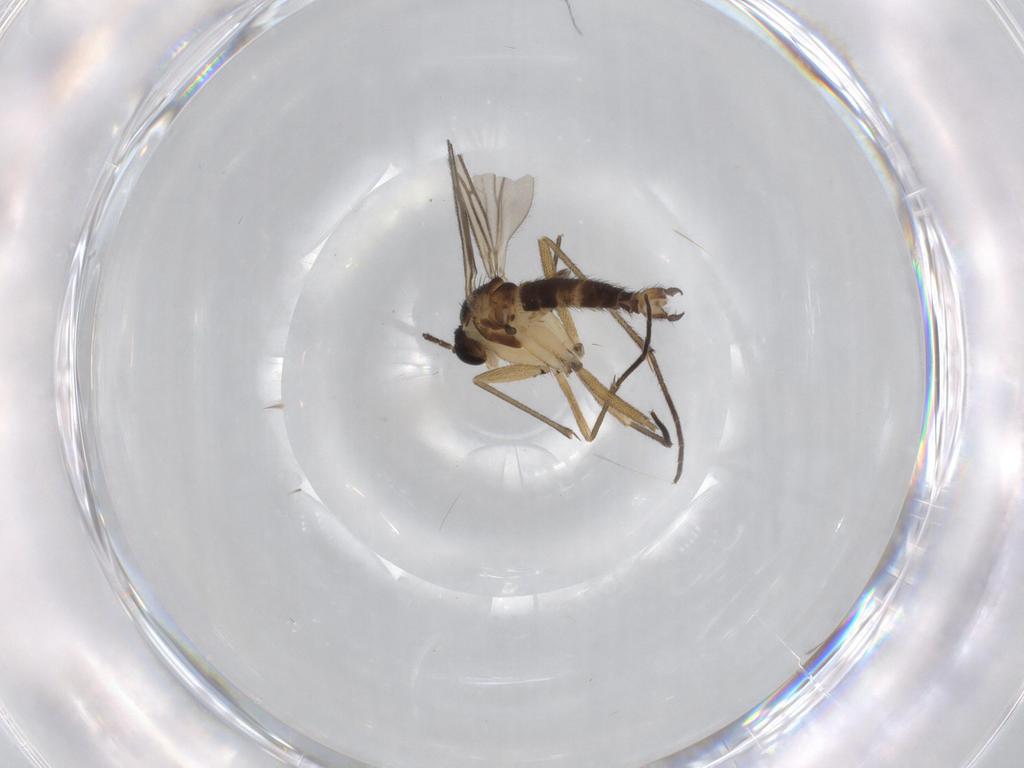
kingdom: Animalia
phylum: Arthropoda
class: Insecta
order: Diptera
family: Sciaridae
